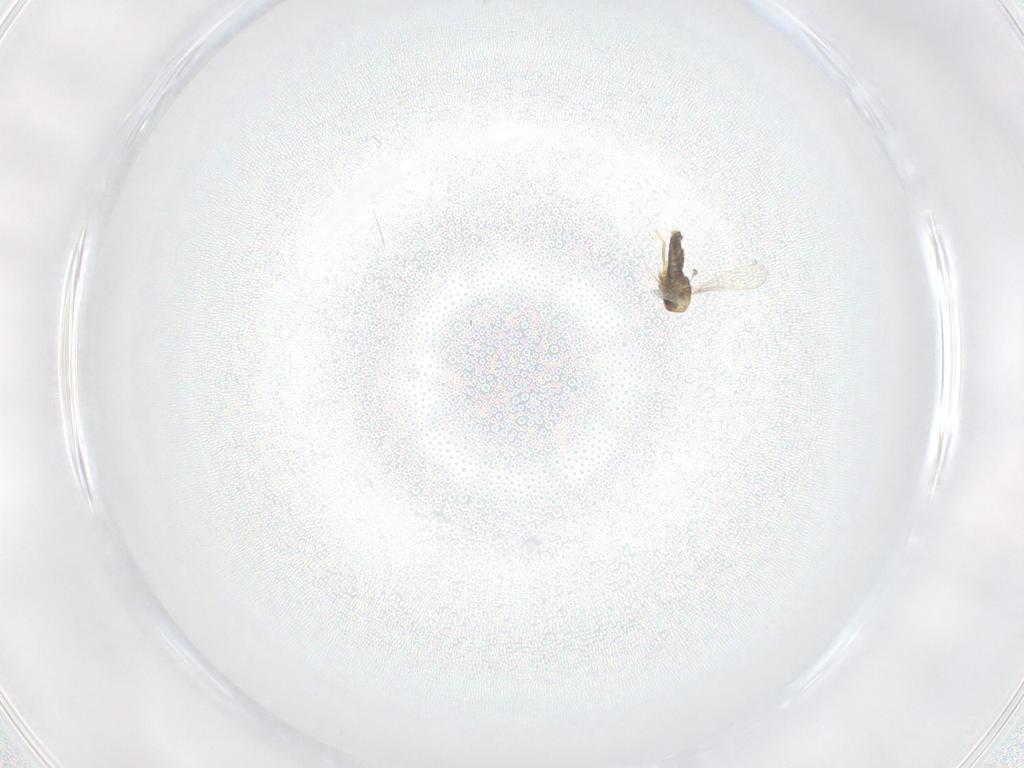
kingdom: Animalia
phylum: Arthropoda
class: Insecta
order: Diptera
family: Chironomidae
